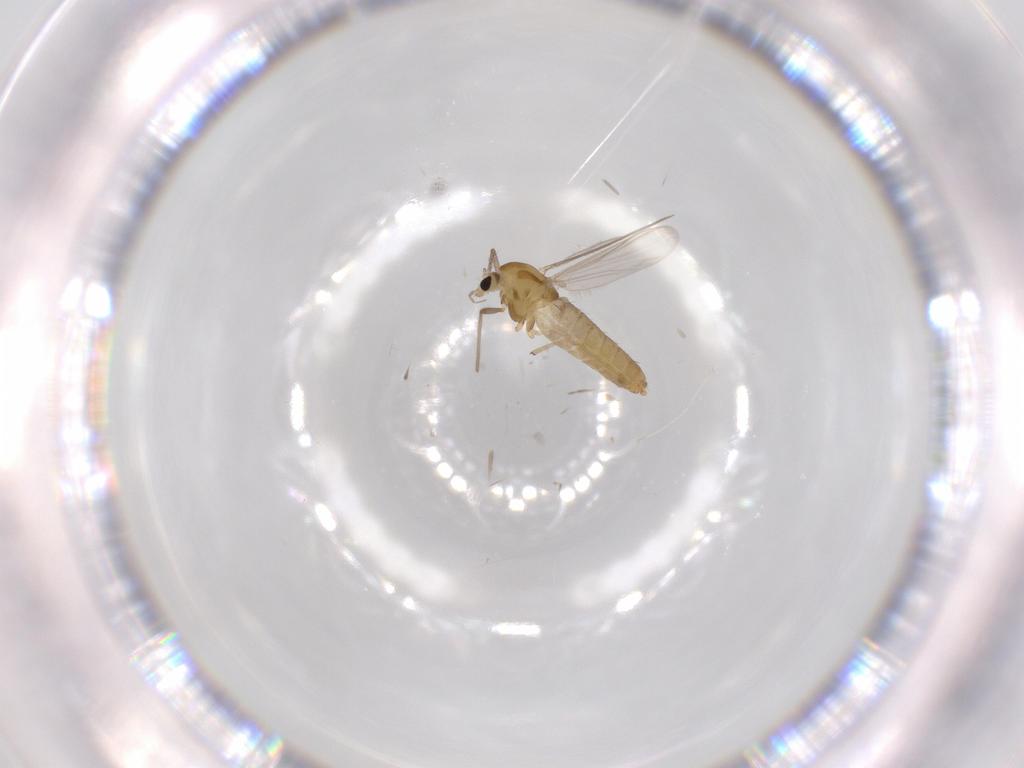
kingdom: Animalia
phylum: Arthropoda
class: Insecta
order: Diptera
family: Chironomidae
